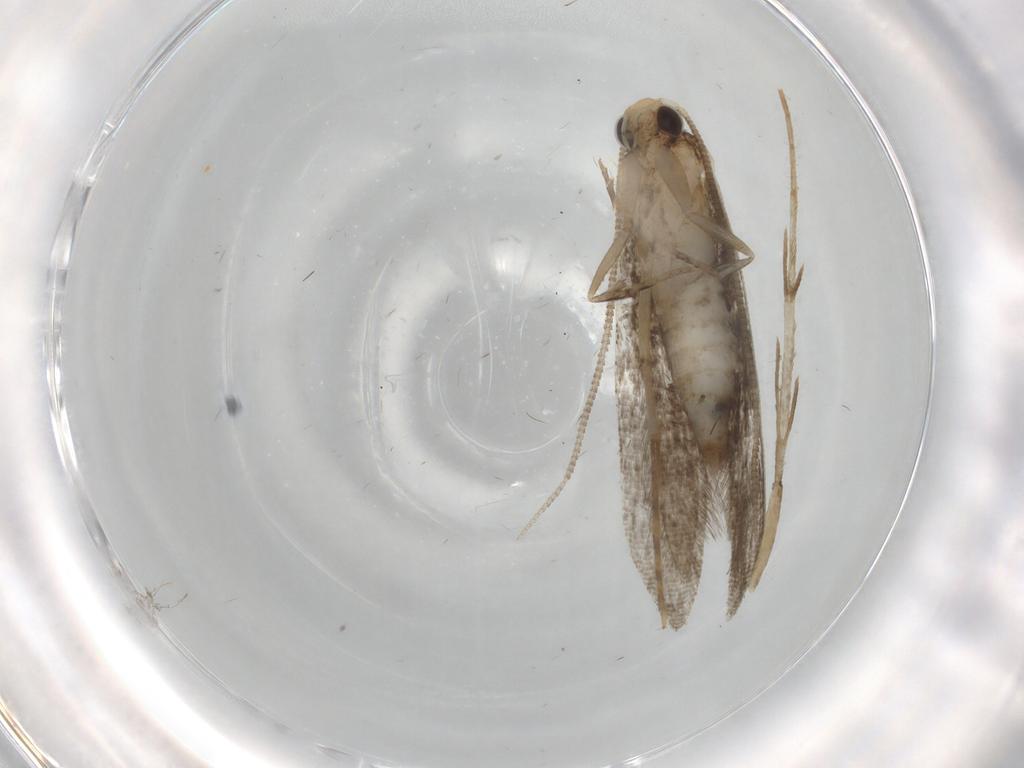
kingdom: Animalia
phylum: Arthropoda
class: Insecta
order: Lepidoptera
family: Tineidae
